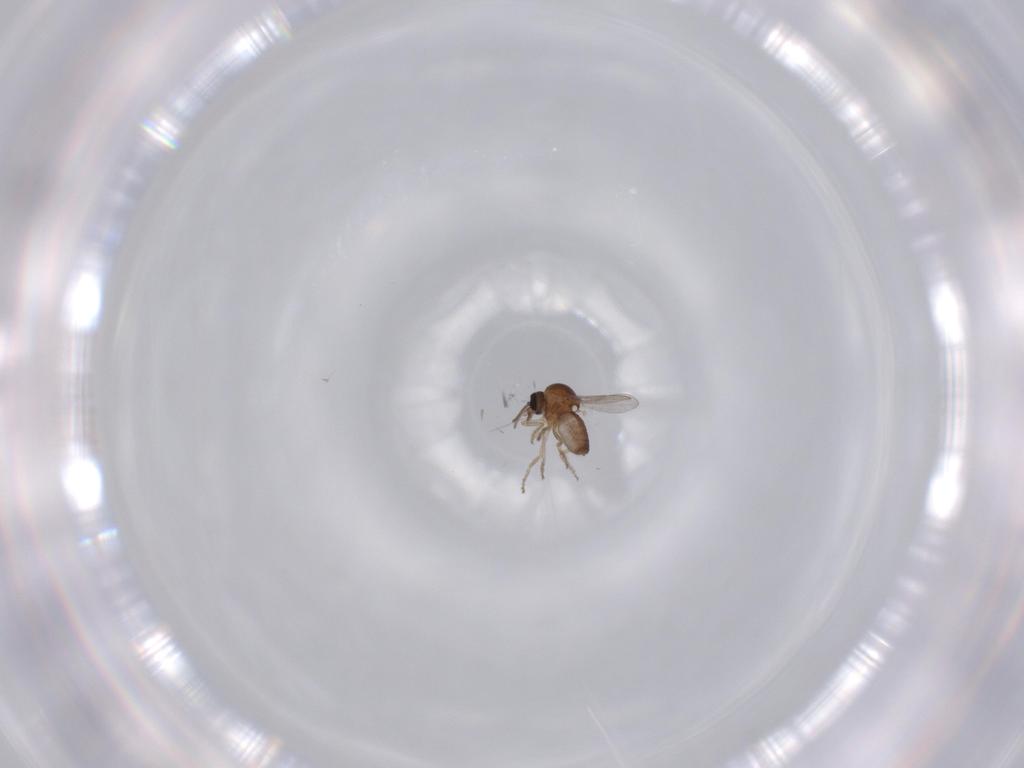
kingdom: Animalia
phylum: Arthropoda
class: Insecta
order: Diptera
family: Ceratopogonidae
